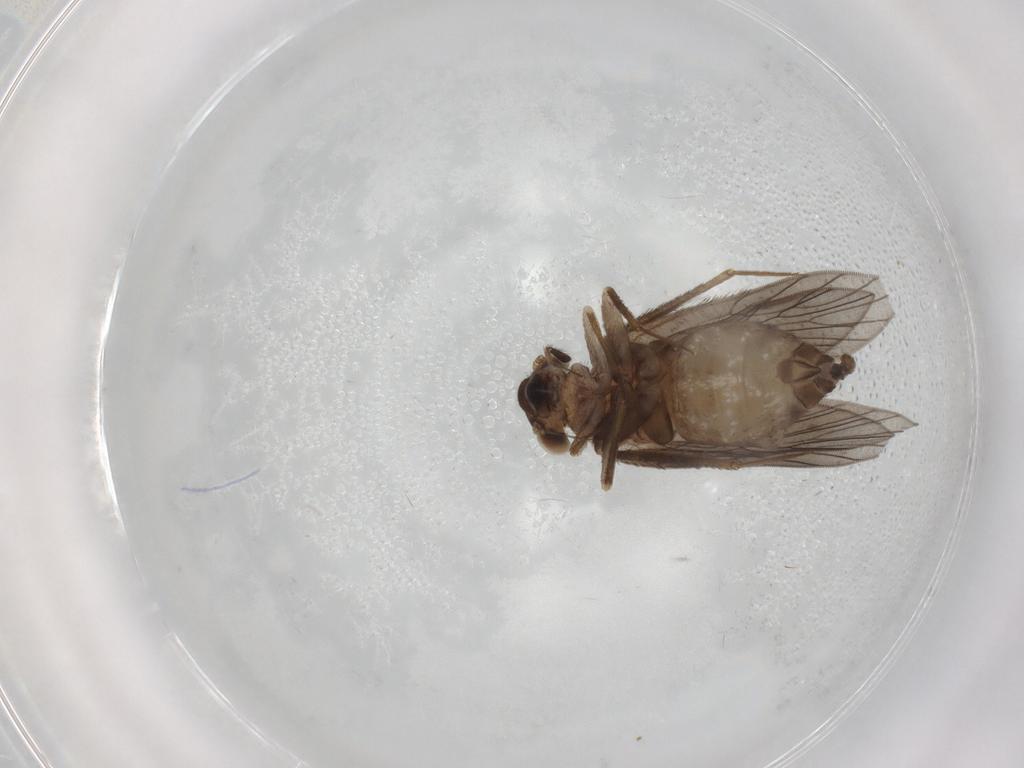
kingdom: Animalia
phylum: Arthropoda
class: Insecta
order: Psocodea
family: Lepidopsocidae
